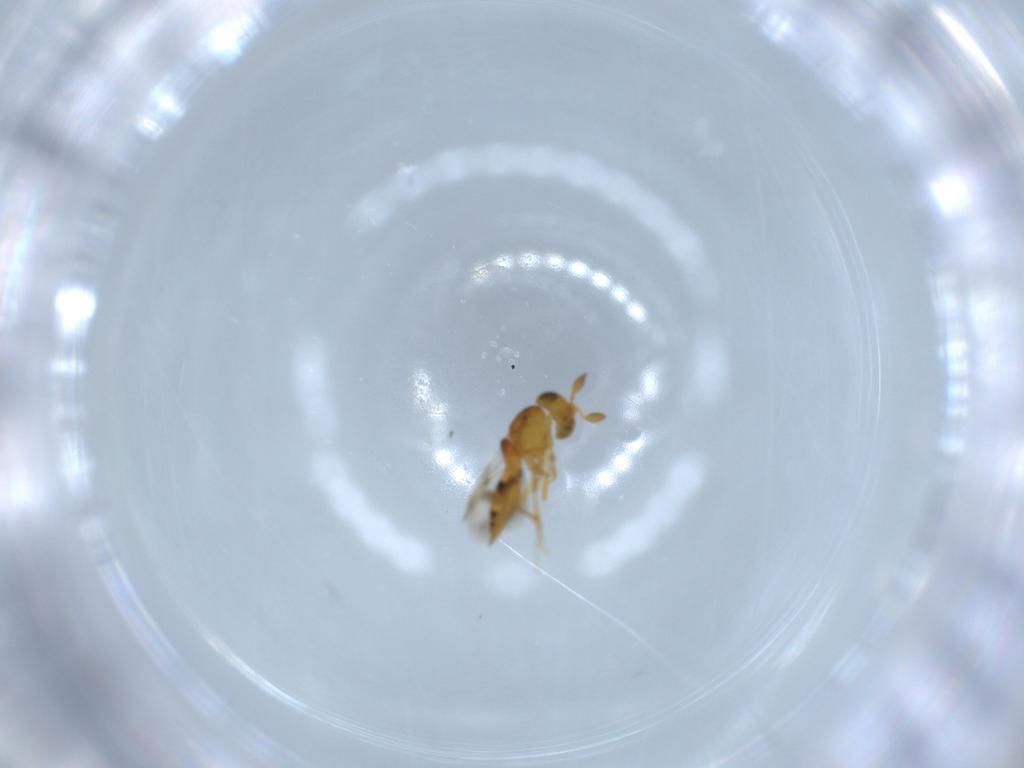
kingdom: Animalia
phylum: Arthropoda
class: Insecta
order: Hymenoptera
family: Scelionidae
